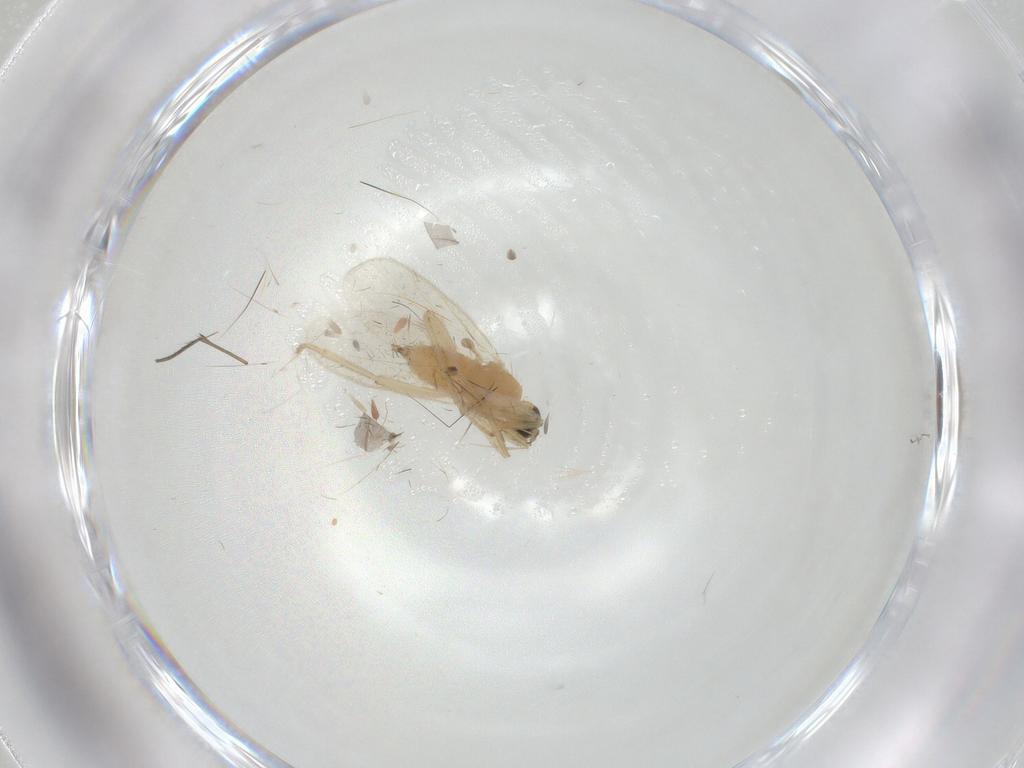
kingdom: Animalia
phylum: Arthropoda
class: Insecta
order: Diptera
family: Hybotidae
